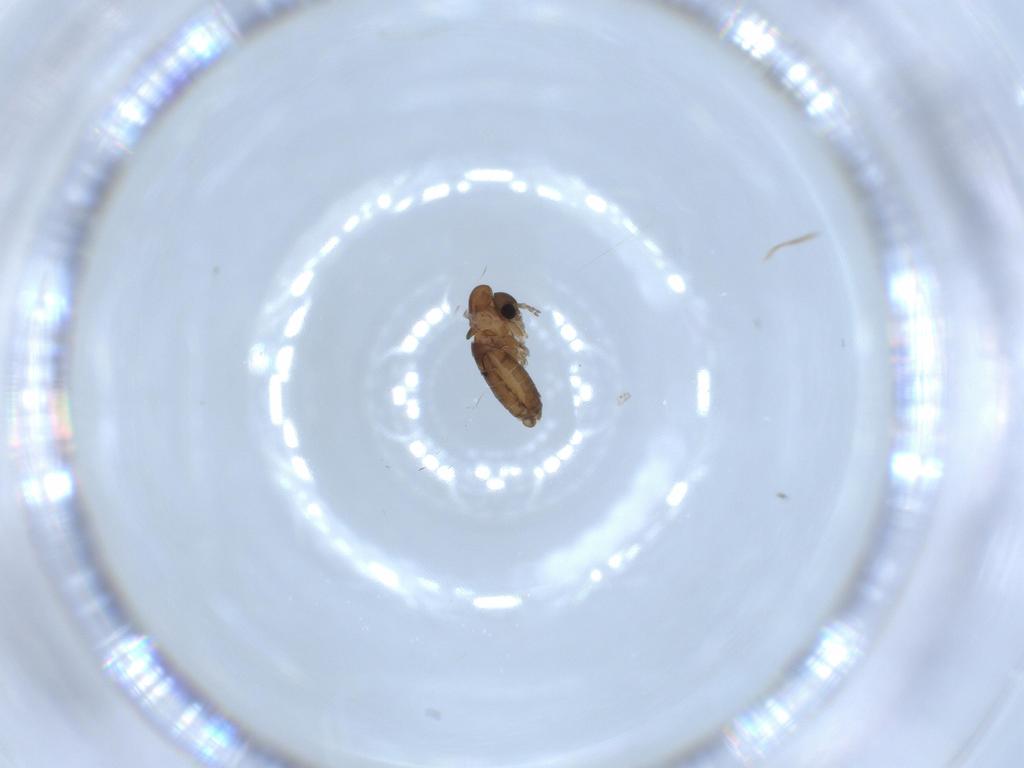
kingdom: Animalia
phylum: Arthropoda
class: Insecta
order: Diptera
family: Psychodidae
